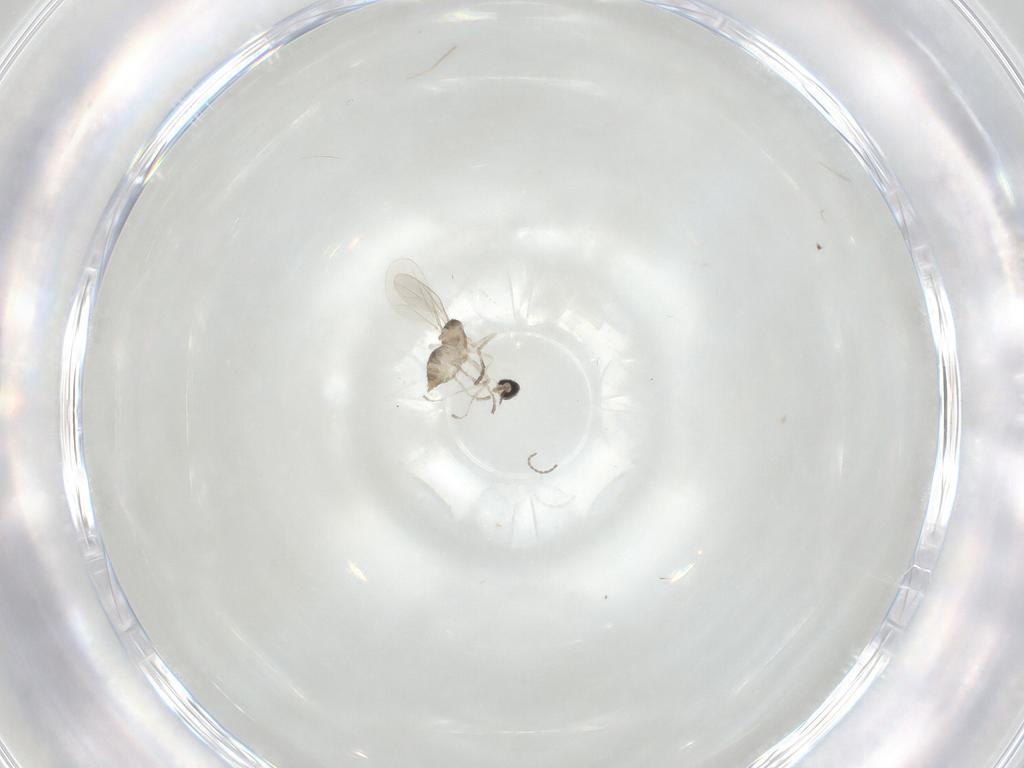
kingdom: Animalia
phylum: Arthropoda
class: Insecta
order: Diptera
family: Cecidomyiidae
